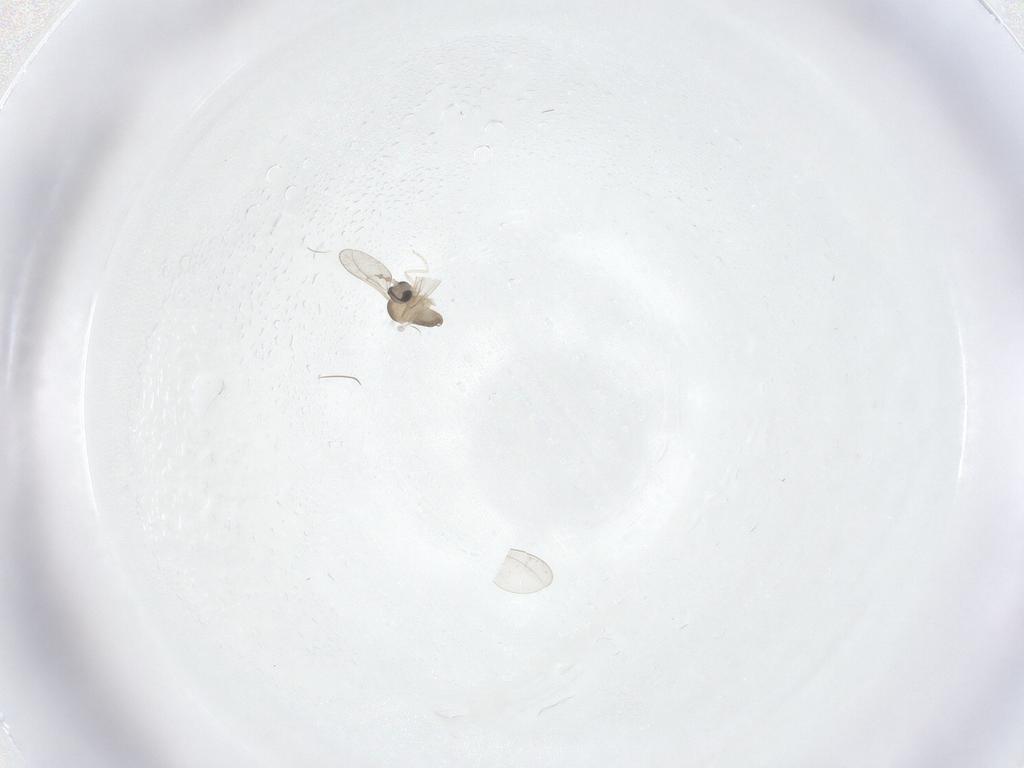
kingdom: Animalia
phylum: Arthropoda
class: Insecta
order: Diptera
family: Cecidomyiidae
